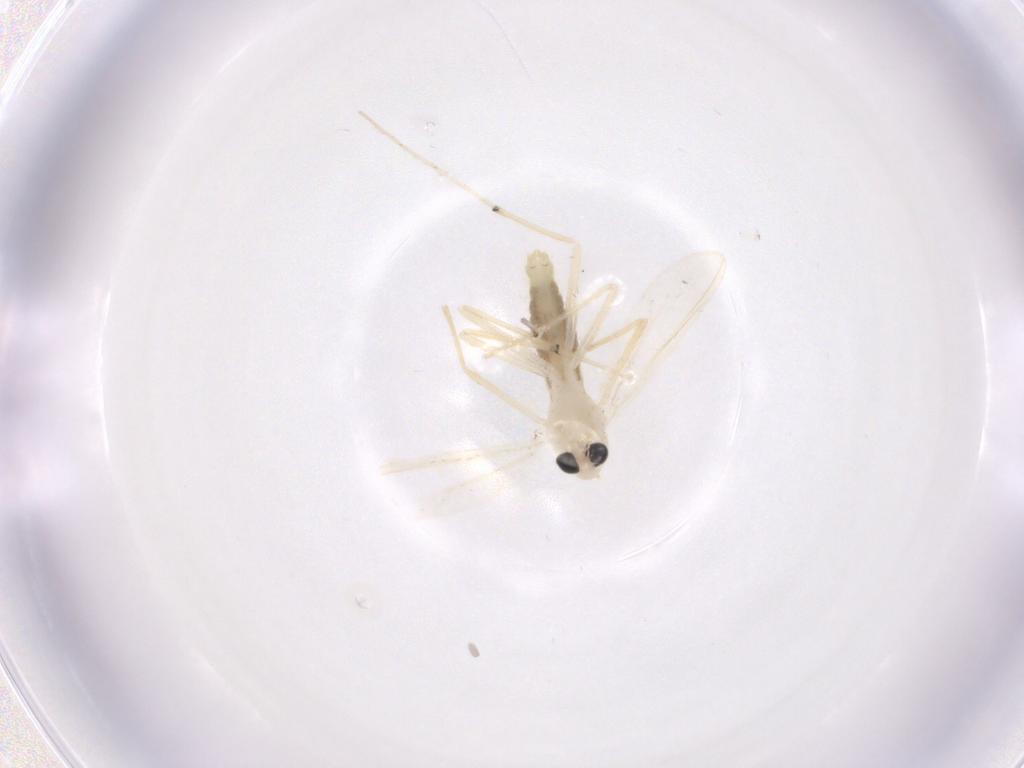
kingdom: Animalia
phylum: Arthropoda
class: Insecta
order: Diptera
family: Chironomidae
